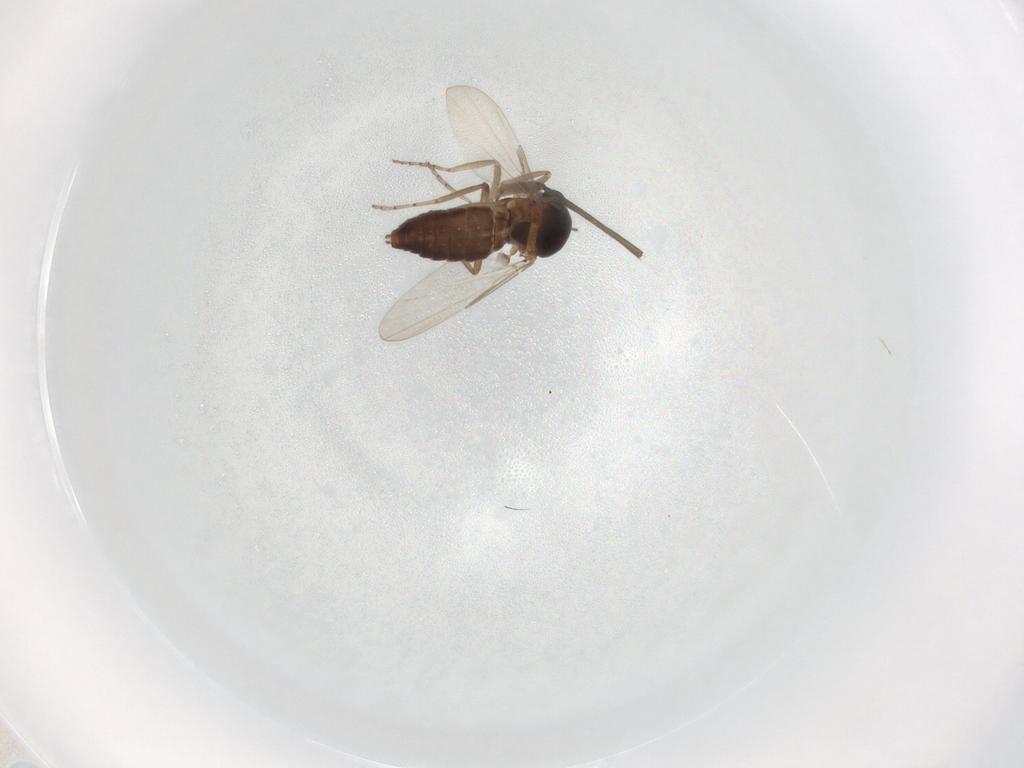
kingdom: Animalia
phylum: Arthropoda
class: Insecta
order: Diptera
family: Ceratopogonidae
